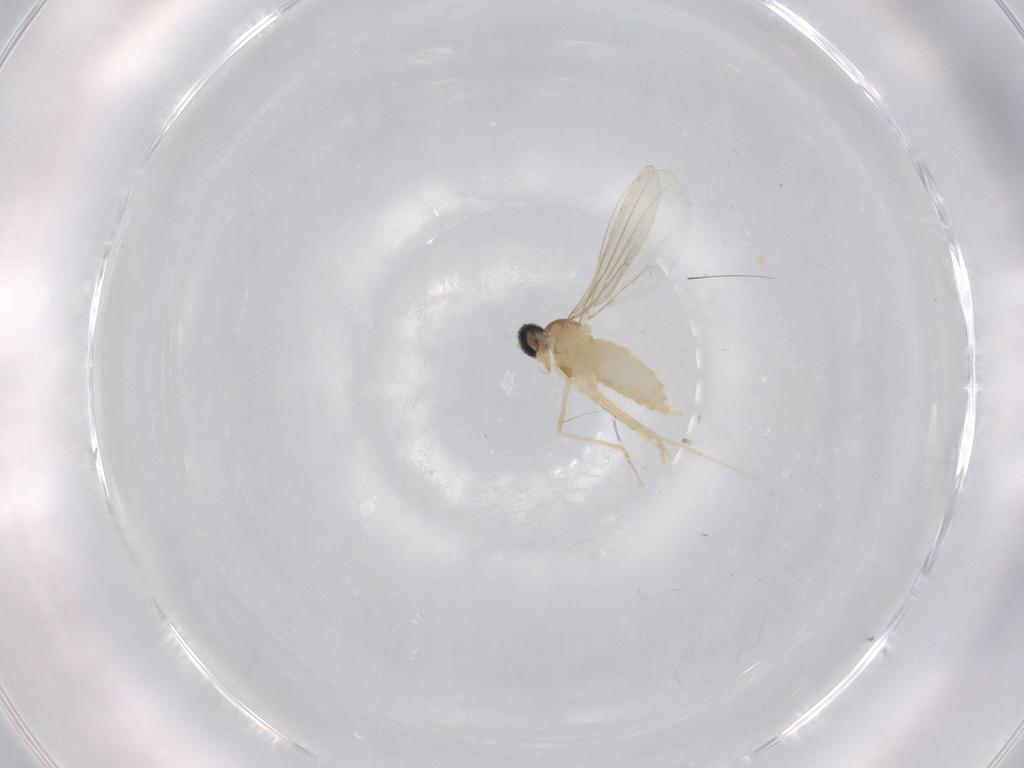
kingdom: Animalia
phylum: Arthropoda
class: Insecta
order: Diptera
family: Cecidomyiidae
